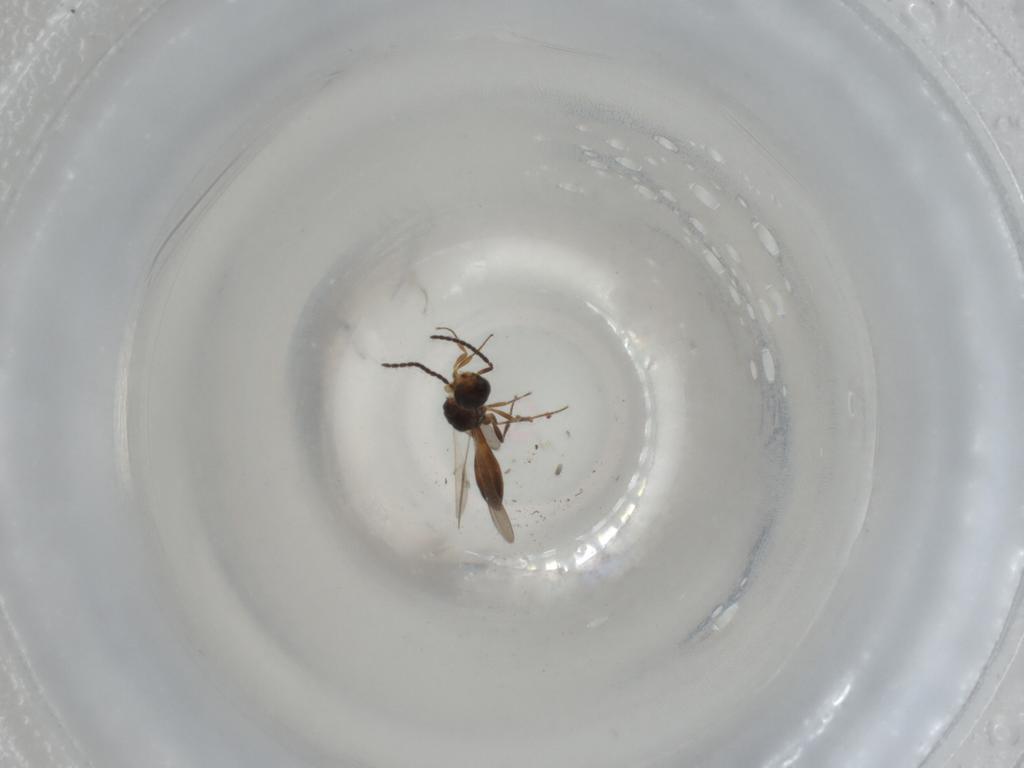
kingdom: Animalia
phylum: Arthropoda
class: Insecta
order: Hymenoptera
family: Scelionidae
